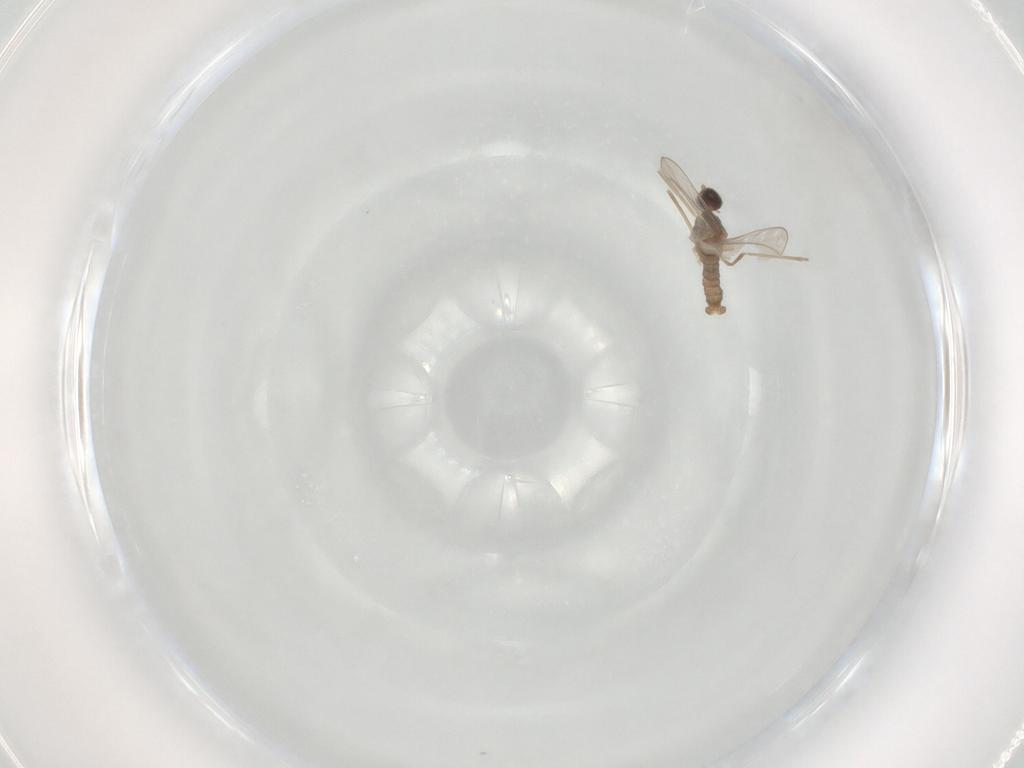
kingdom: Animalia
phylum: Arthropoda
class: Insecta
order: Diptera
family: Cecidomyiidae
